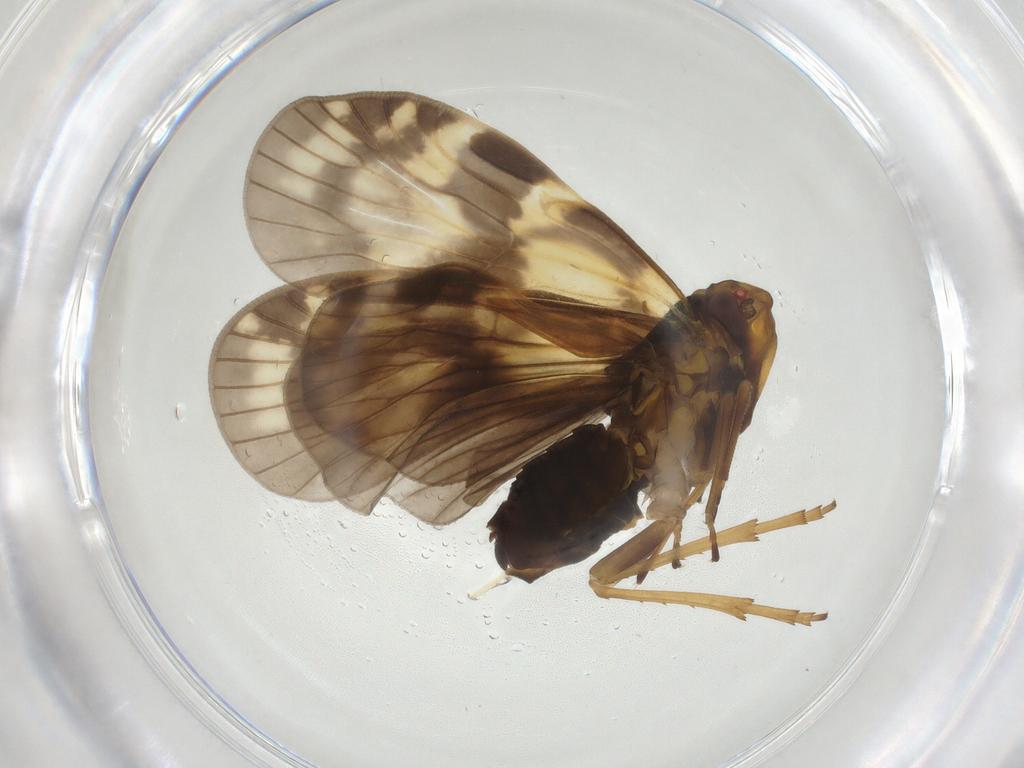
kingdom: Animalia
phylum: Arthropoda
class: Insecta
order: Hemiptera
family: Cixiidae
